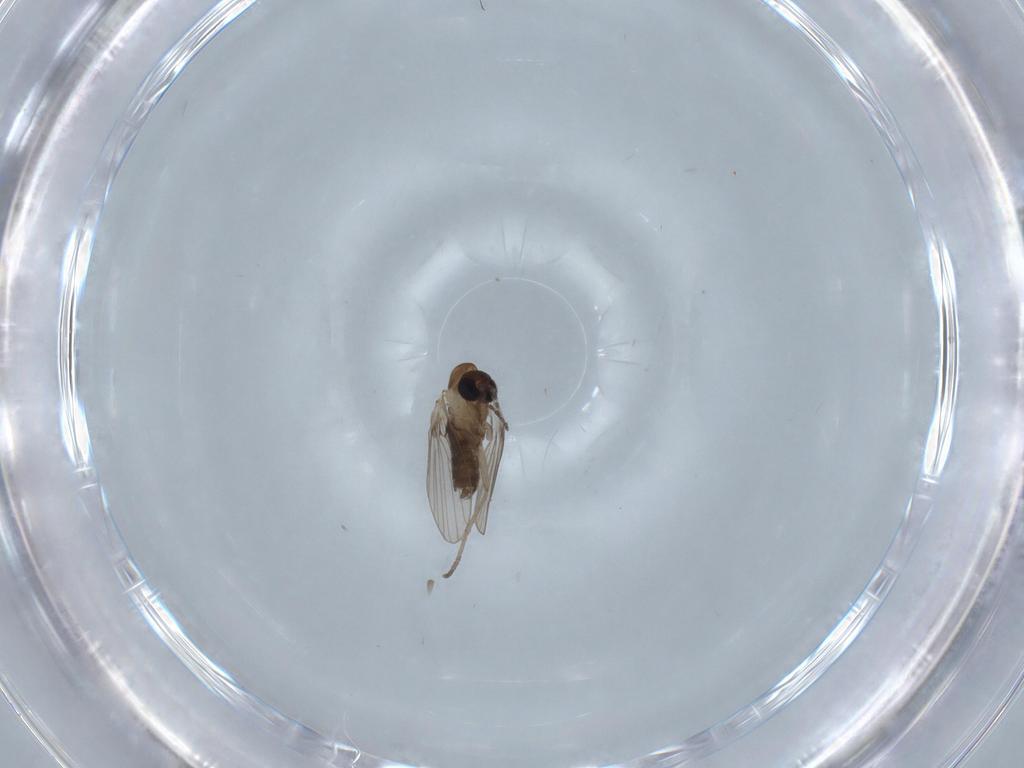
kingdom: Animalia
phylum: Arthropoda
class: Insecta
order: Diptera
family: Psychodidae
